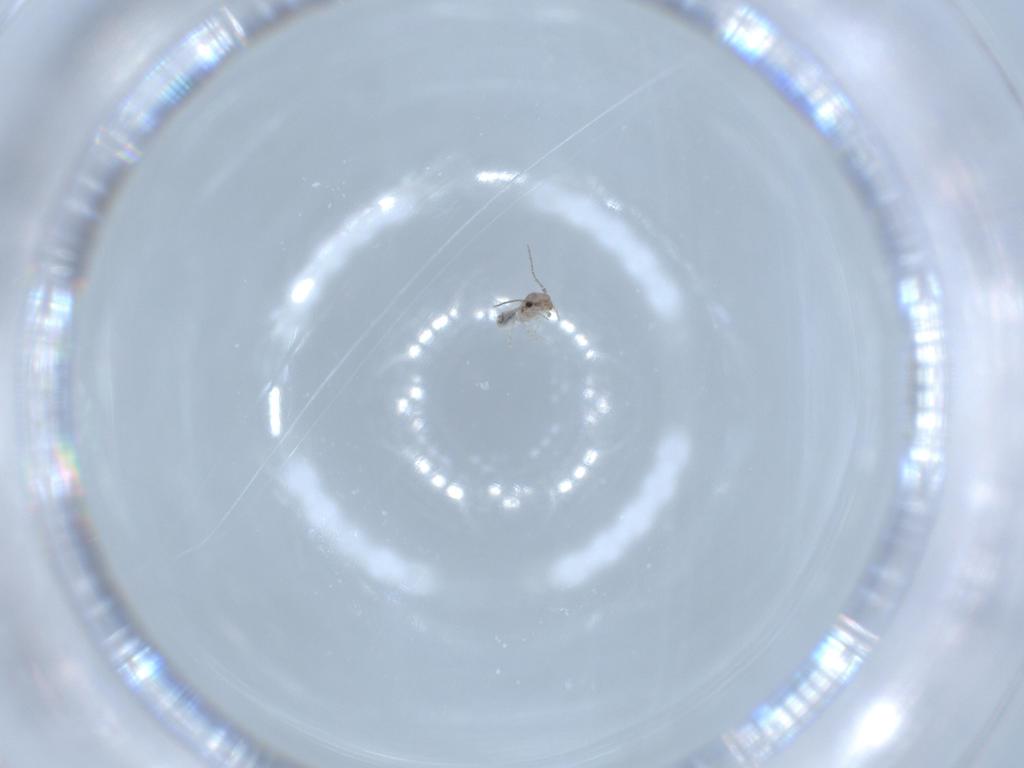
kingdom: Animalia
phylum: Arthropoda
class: Insecta
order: Psocodea
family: Lepidopsocidae
